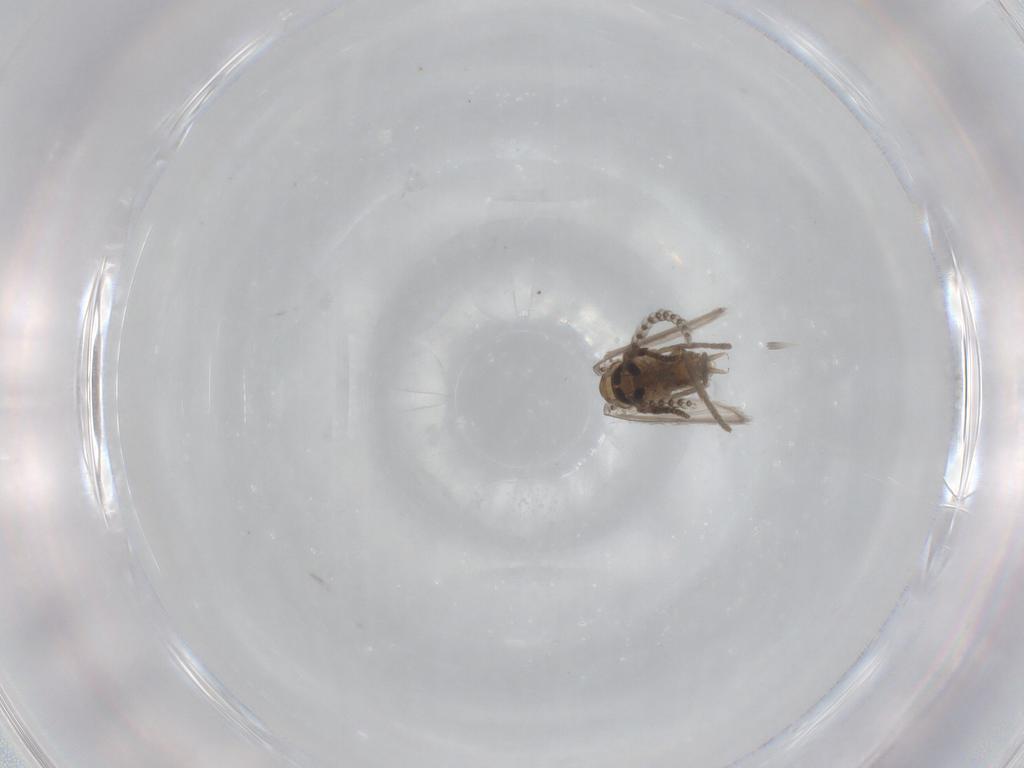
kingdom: Animalia
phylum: Arthropoda
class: Insecta
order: Diptera
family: Psychodidae
